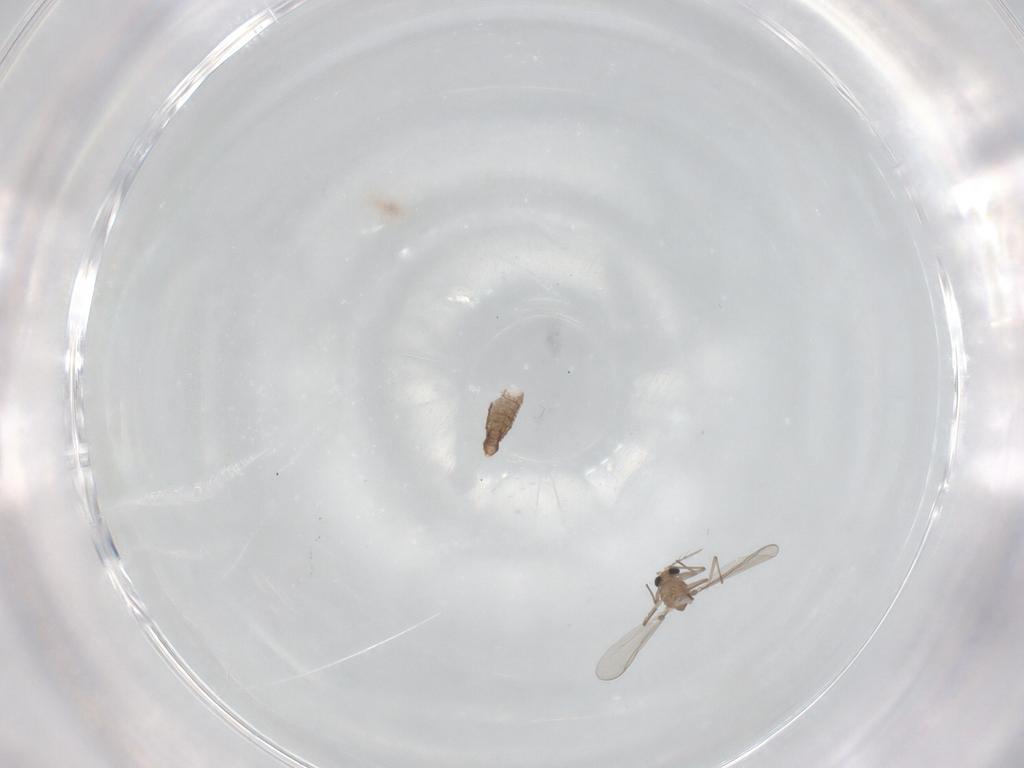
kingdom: Animalia
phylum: Arthropoda
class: Insecta
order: Diptera
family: Chironomidae
